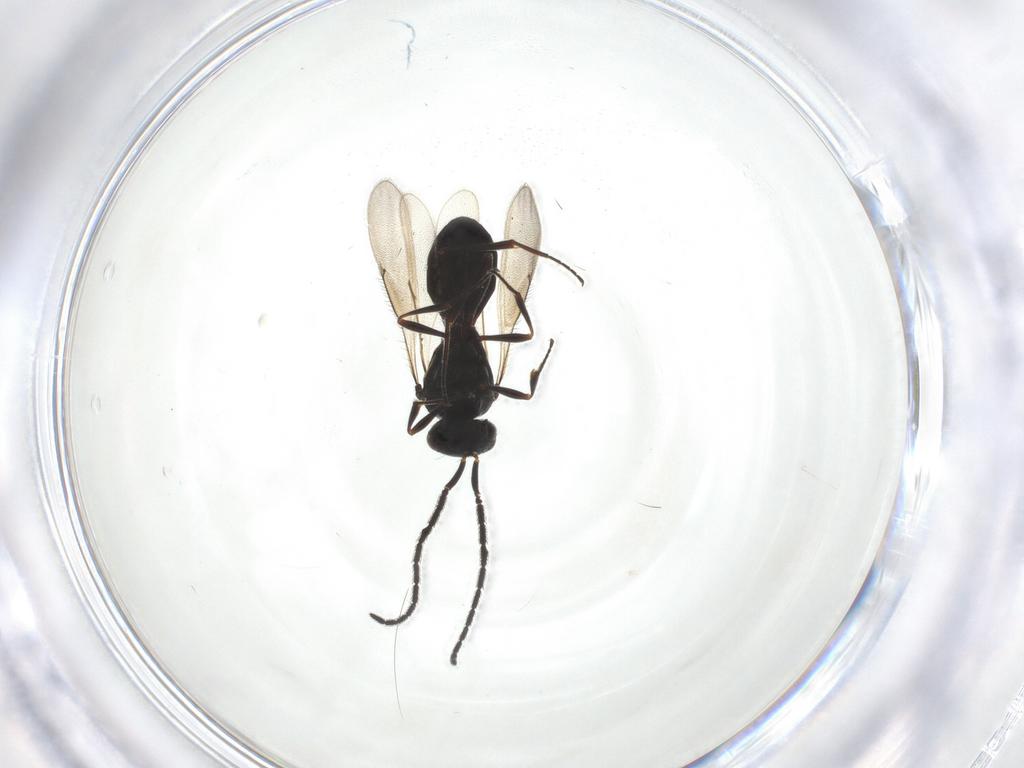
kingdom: Animalia
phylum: Arthropoda
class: Insecta
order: Hymenoptera
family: Scelionidae
